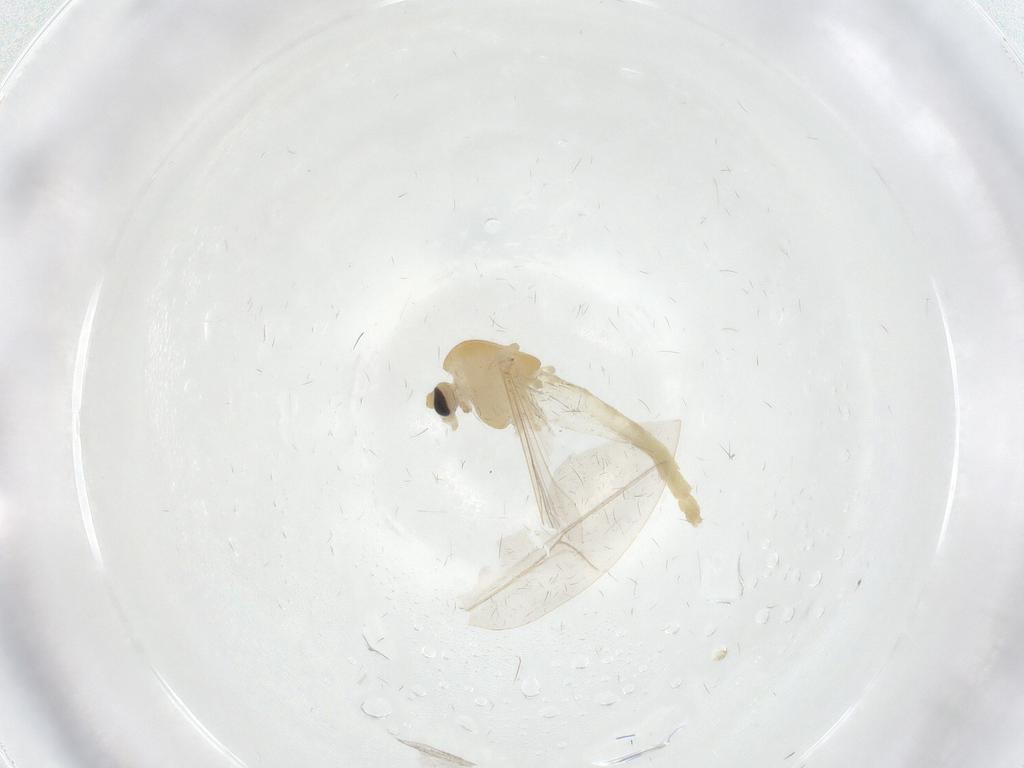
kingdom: Animalia
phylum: Arthropoda
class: Insecta
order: Diptera
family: Chironomidae
